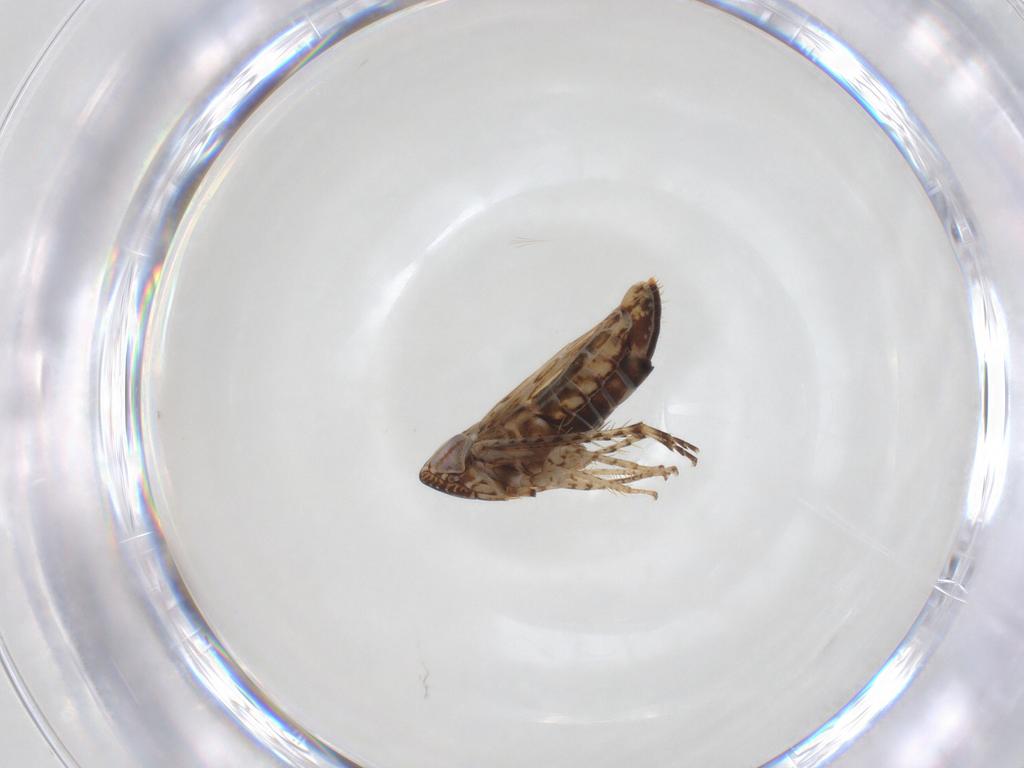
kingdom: Animalia
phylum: Arthropoda
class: Insecta
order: Hemiptera
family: Cicadellidae
